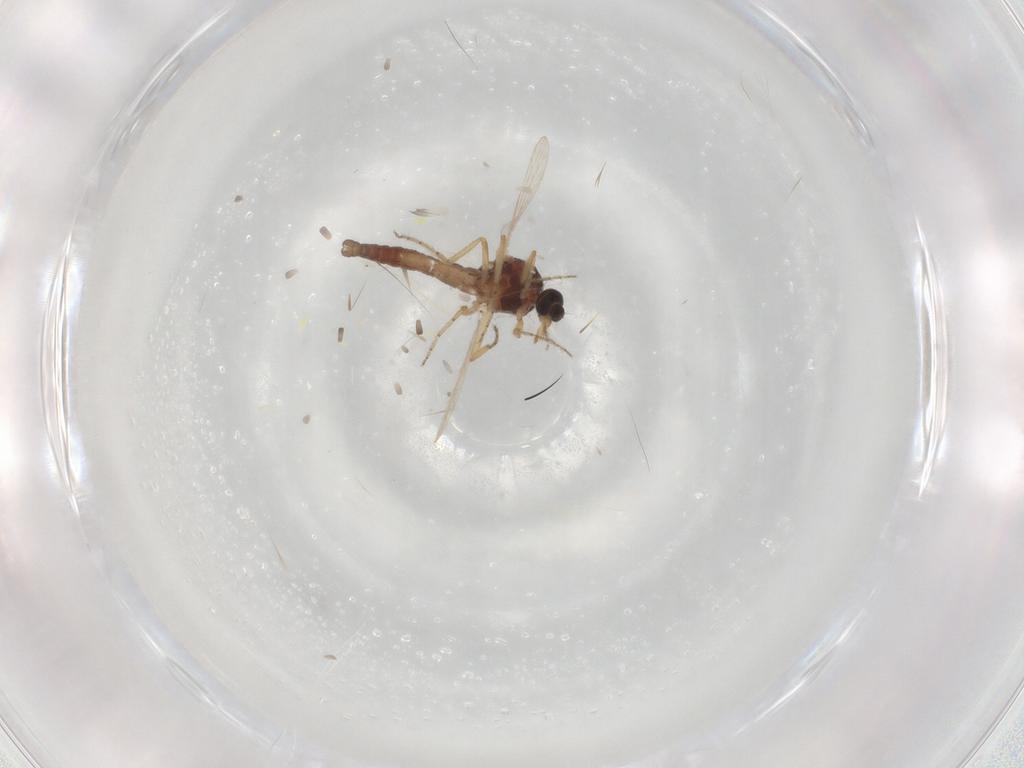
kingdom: Animalia
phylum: Arthropoda
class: Insecta
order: Diptera
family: Ceratopogonidae
